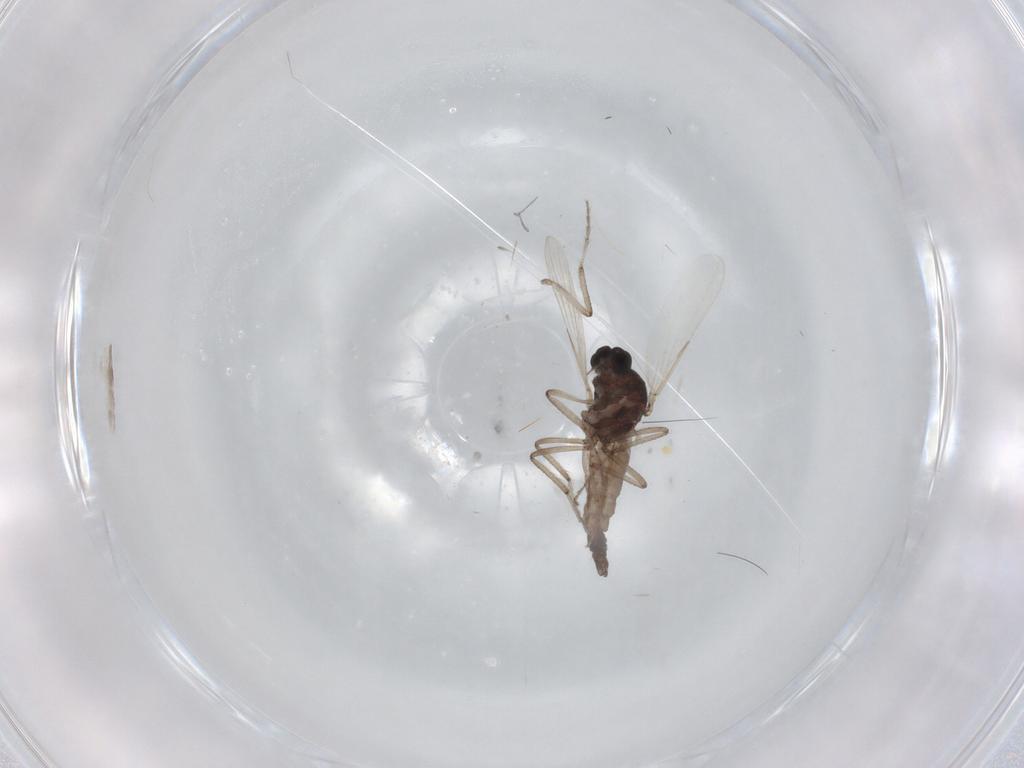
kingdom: Animalia
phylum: Arthropoda
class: Insecta
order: Diptera
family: Ceratopogonidae
